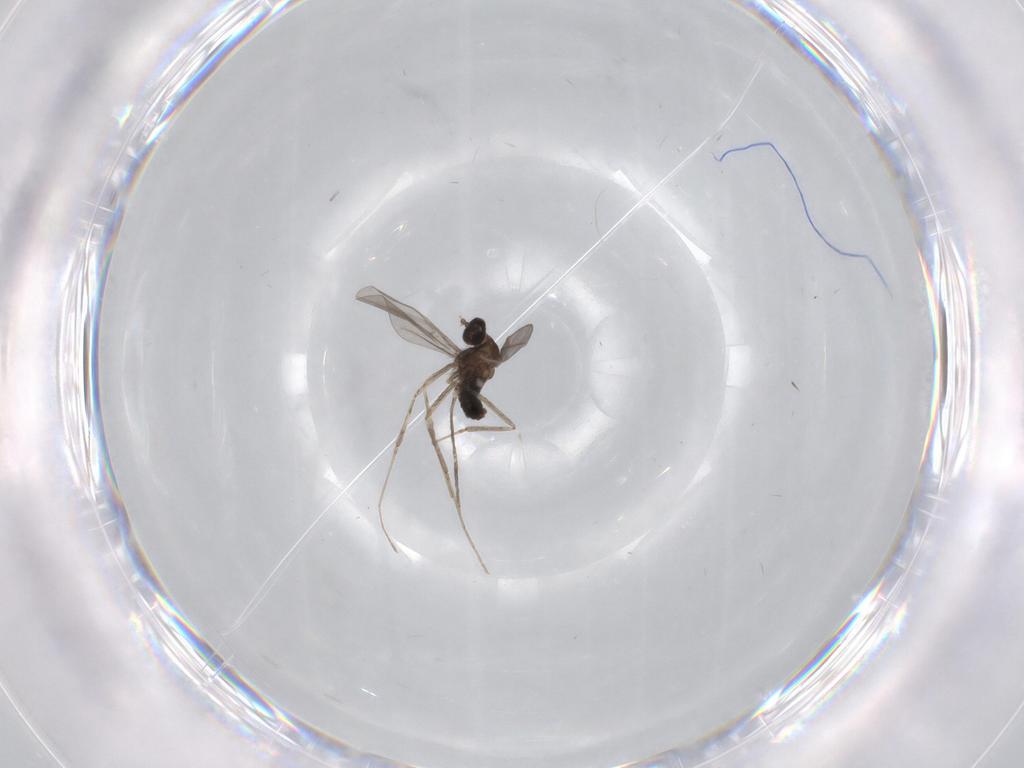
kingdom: Animalia
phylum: Arthropoda
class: Insecta
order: Diptera
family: Cecidomyiidae
